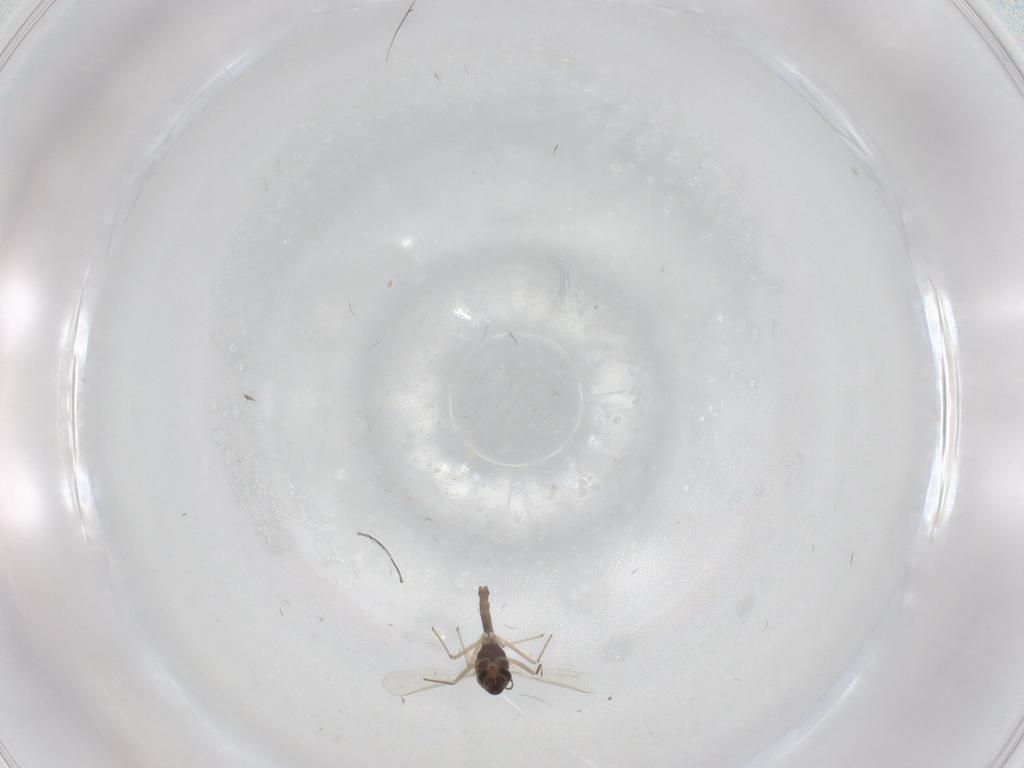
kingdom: Animalia
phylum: Arthropoda
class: Insecta
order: Diptera
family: Chironomidae
